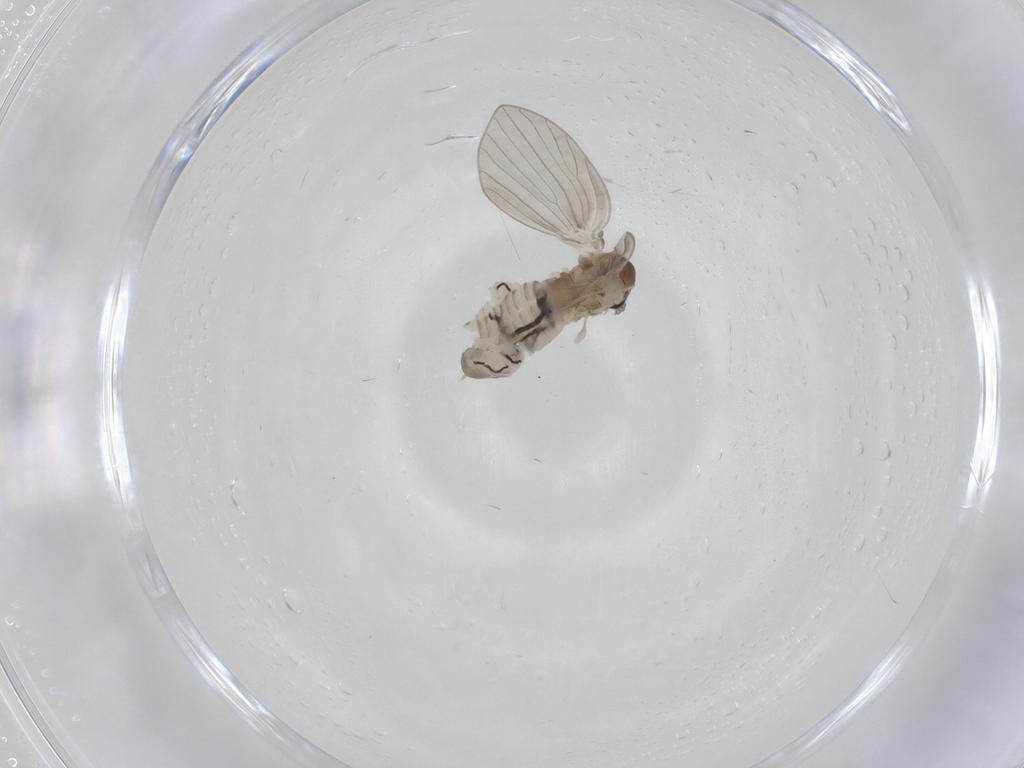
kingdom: Animalia
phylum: Arthropoda
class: Insecta
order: Diptera
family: Psychodidae
